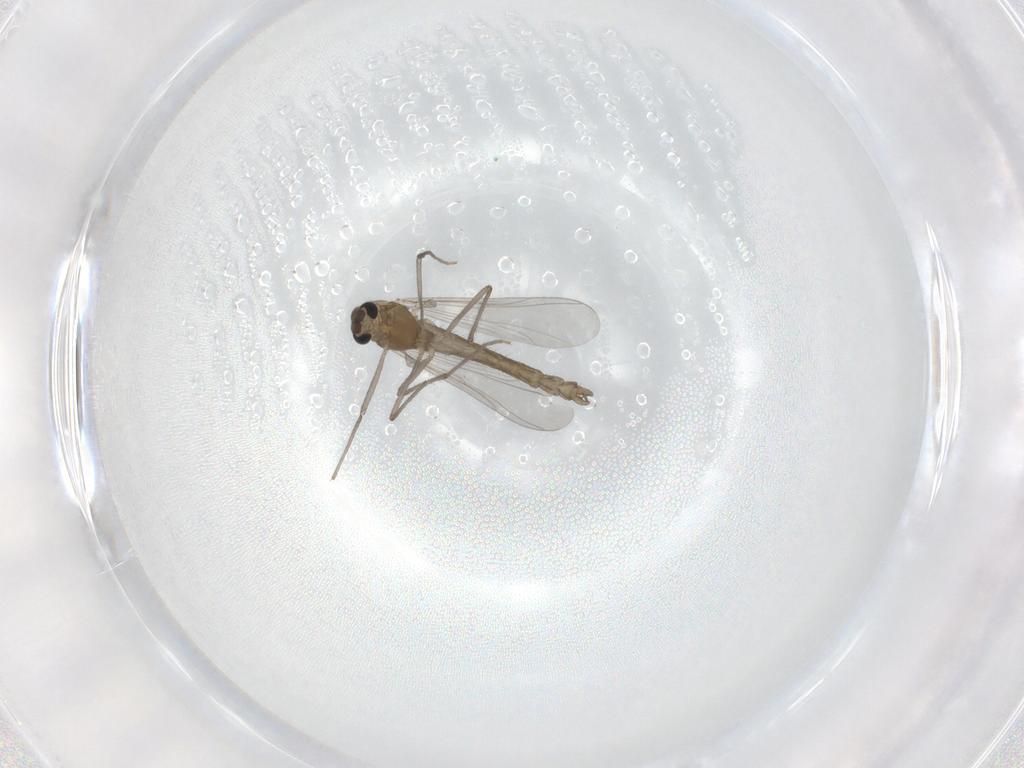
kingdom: Animalia
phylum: Arthropoda
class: Insecta
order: Diptera
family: Chironomidae
